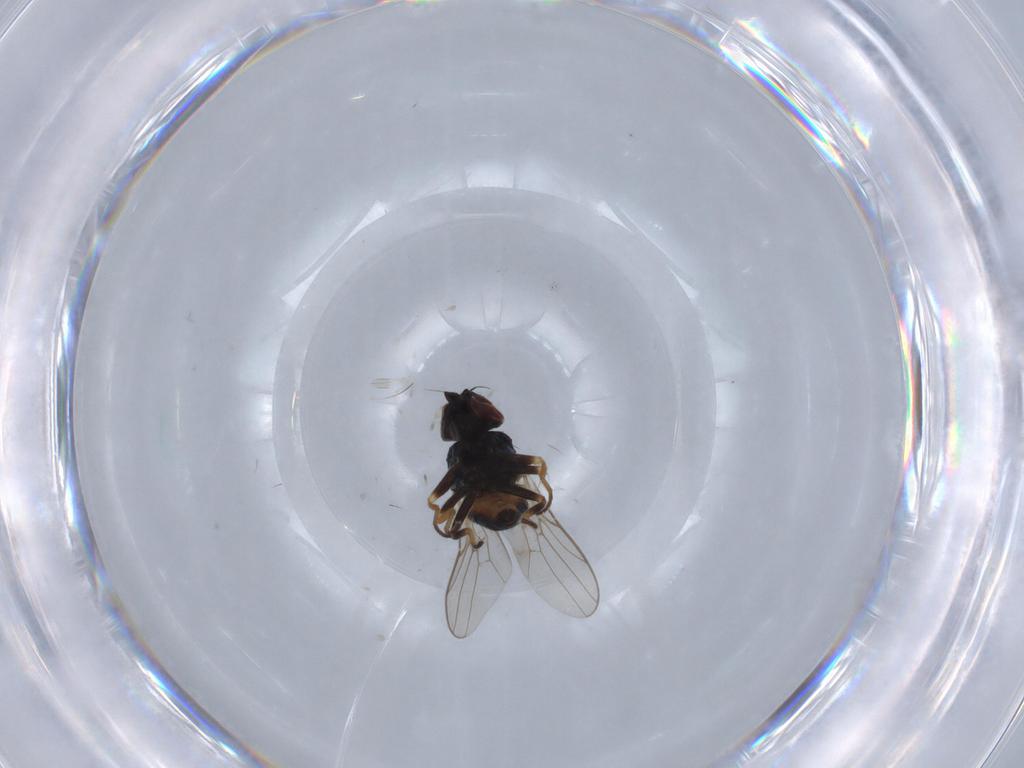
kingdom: Animalia
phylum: Arthropoda
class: Insecta
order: Diptera
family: Chloropidae
